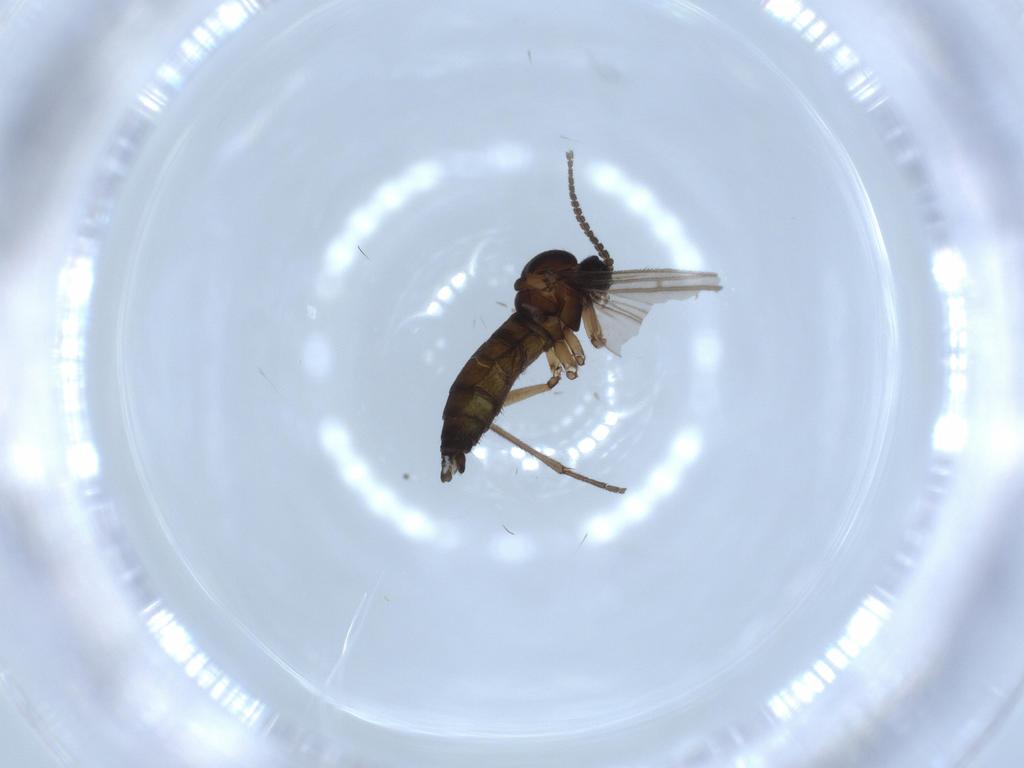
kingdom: Animalia
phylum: Arthropoda
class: Insecta
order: Diptera
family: Sciaridae
